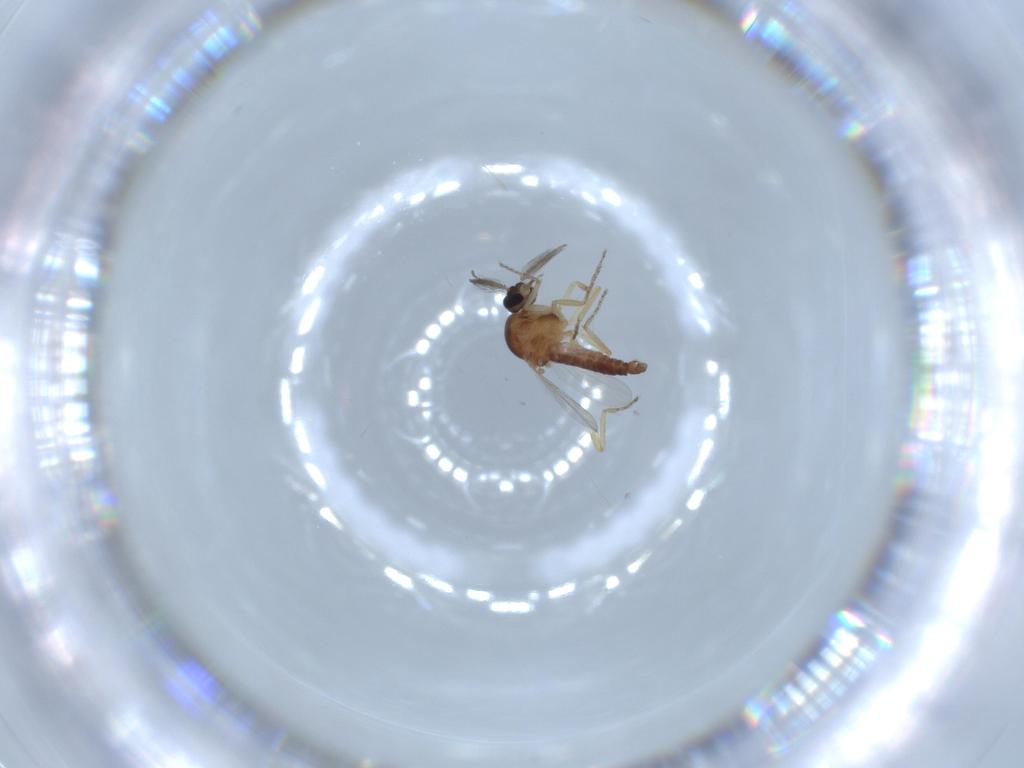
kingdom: Animalia
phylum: Arthropoda
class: Insecta
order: Diptera
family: Ceratopogonidae
